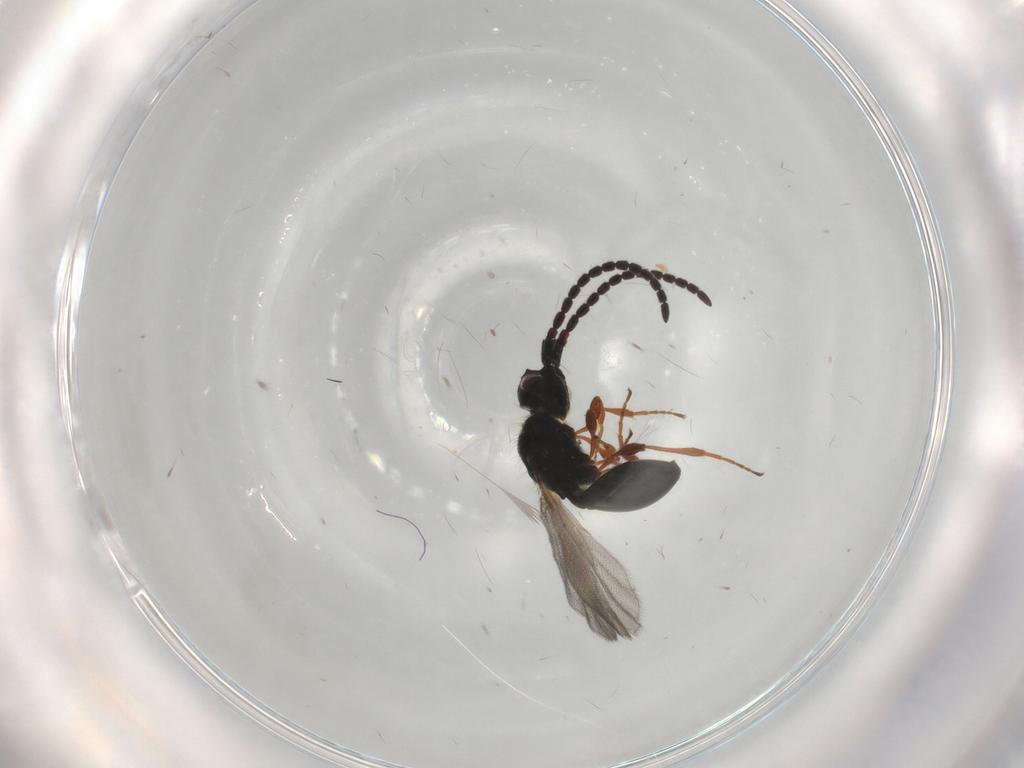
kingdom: Animalia
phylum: Arthropoda
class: Insecta
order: Hymenoptera
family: Diapriidae
